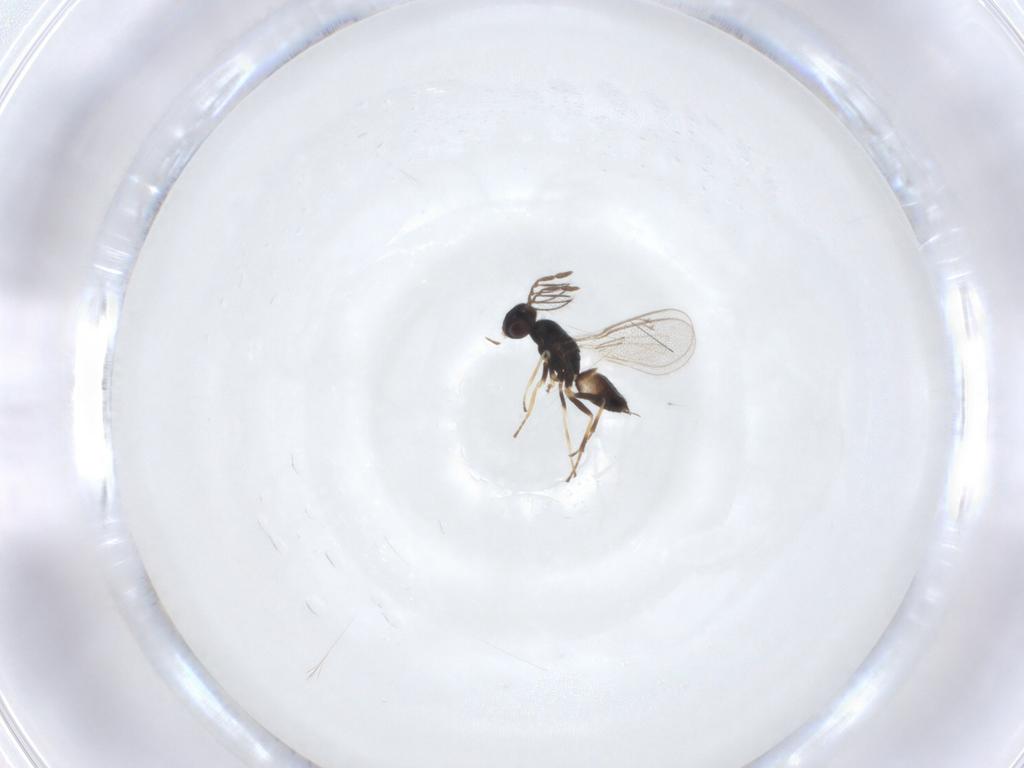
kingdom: Animalia
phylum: Arthropoda
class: Insecta
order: Hymenoptera
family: Eulophidae
